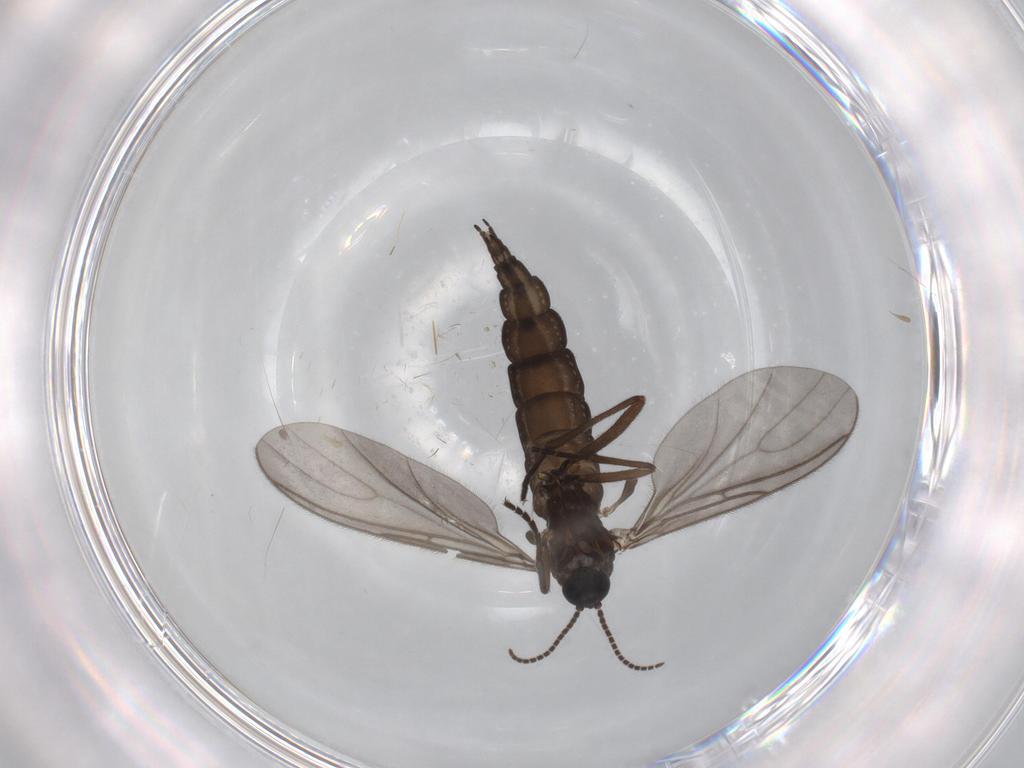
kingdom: Animalia
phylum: Arthropoda
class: Insecta
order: Diptera
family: Sciaridae
